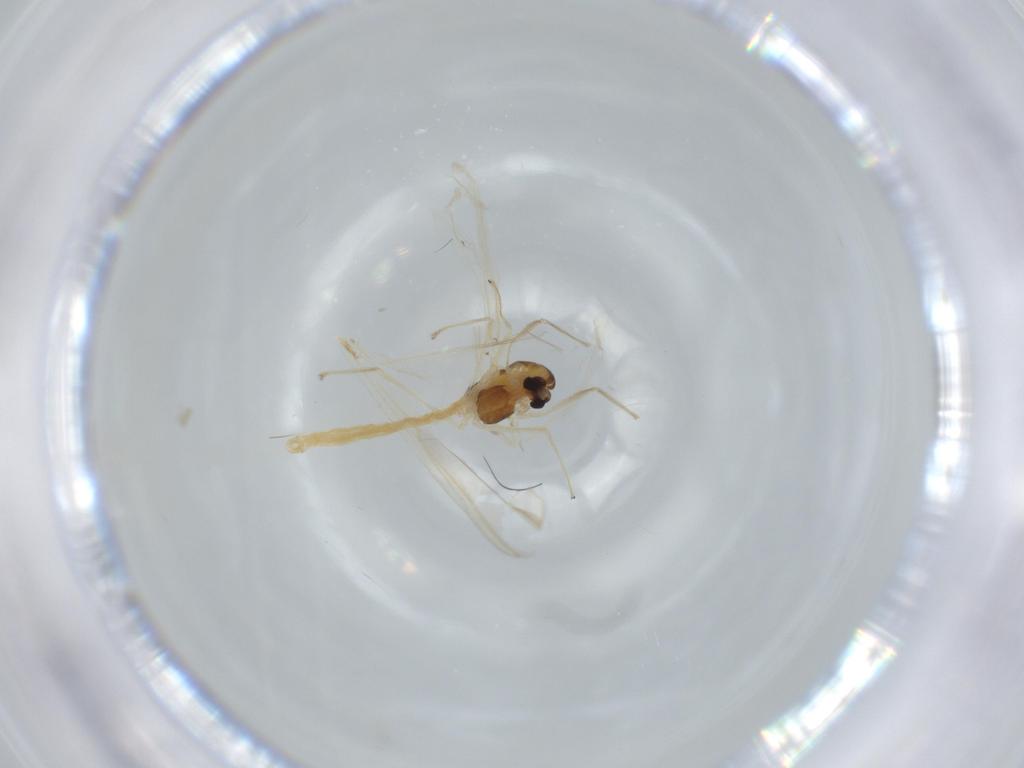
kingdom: Animalia
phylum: Arthropoda
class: Insecta
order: Diptera
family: Chironomidae
